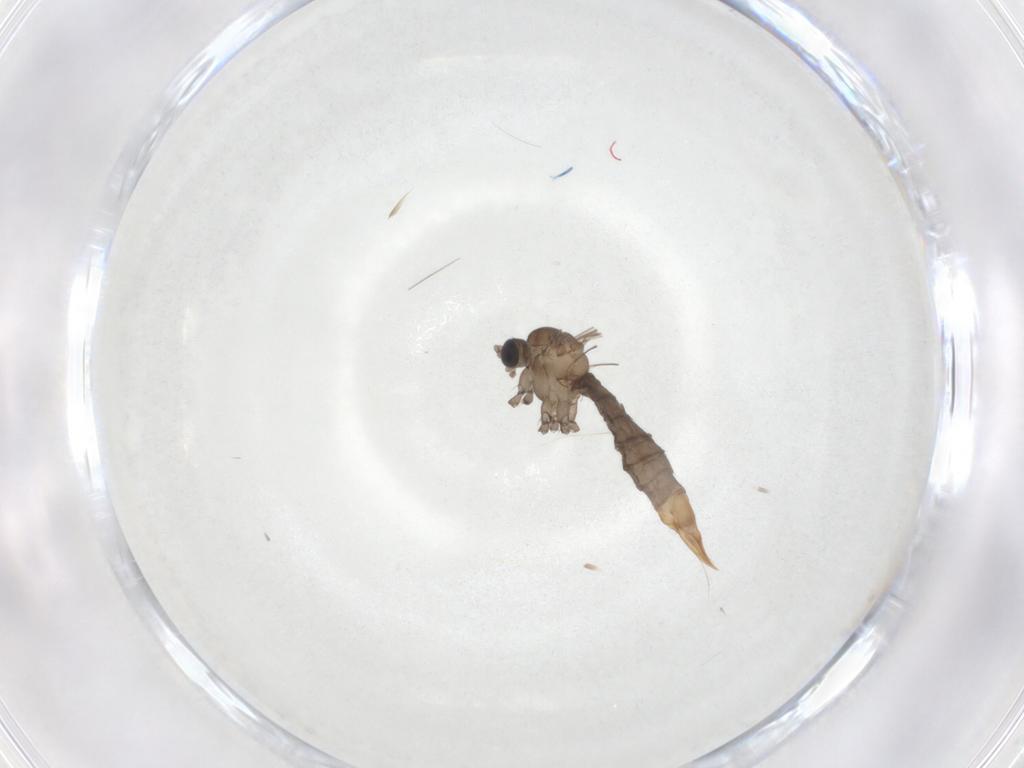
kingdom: Animalia
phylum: Arthropoda
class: Insecta
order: Diptera
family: Limoniidae
